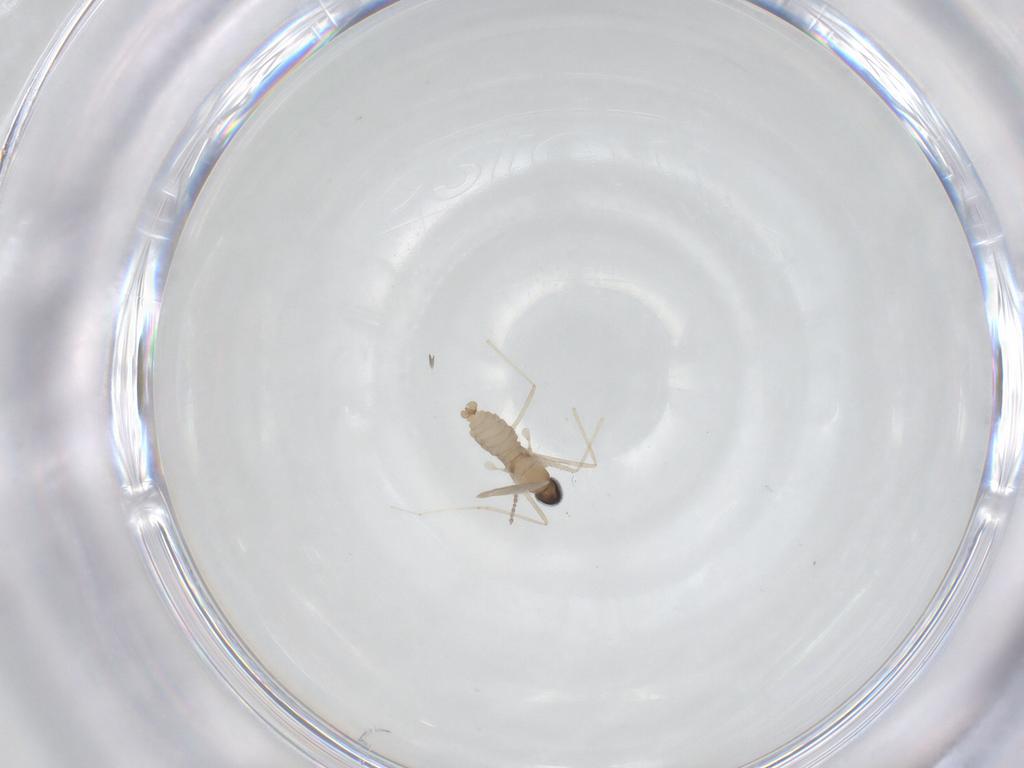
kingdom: Animalia
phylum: Arthropoda
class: Insecta
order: Diptera
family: Cecidomyiidae
